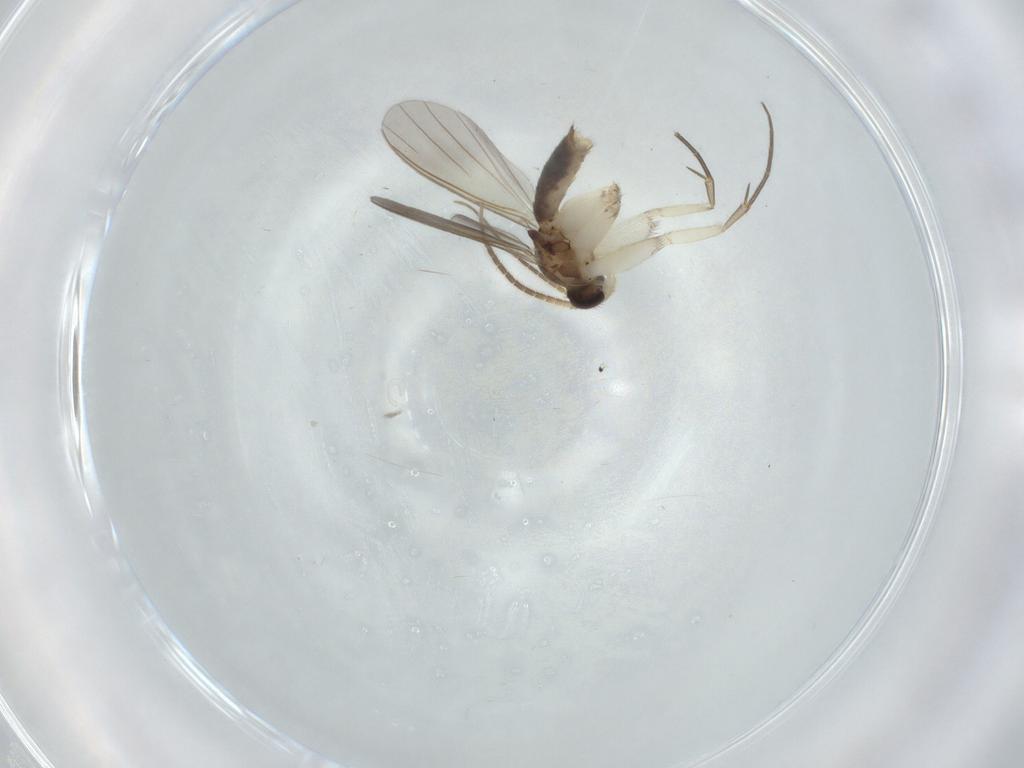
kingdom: Animalia
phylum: Arthropoda
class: Insecta
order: Diptera
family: Mycetophilidae
